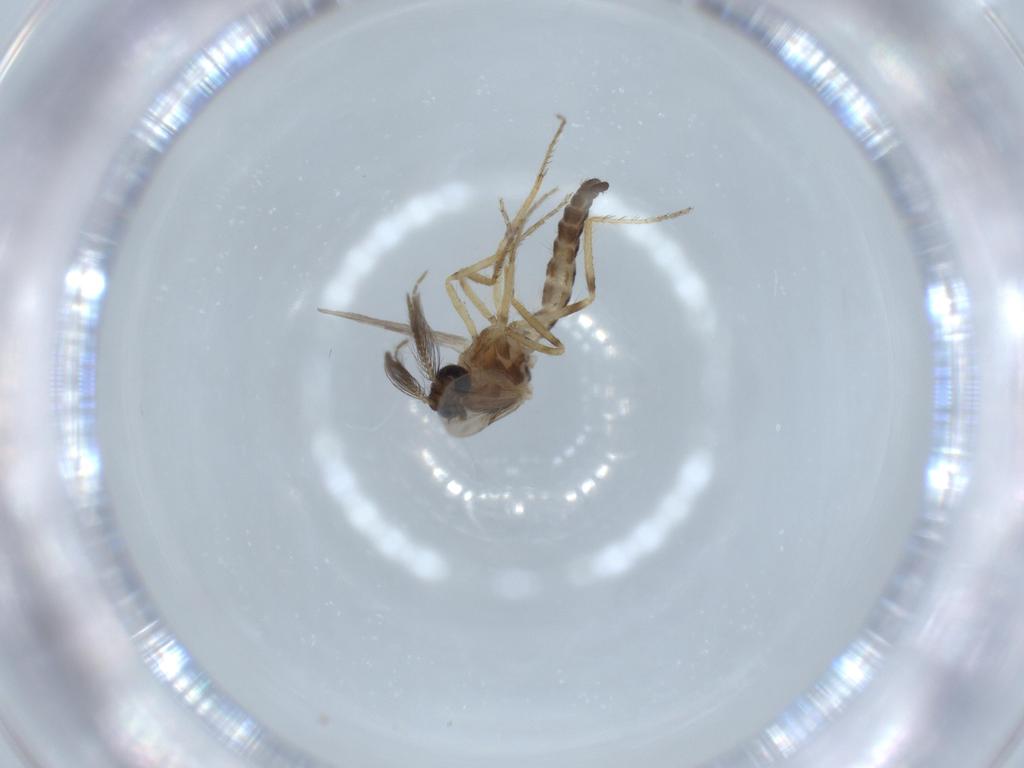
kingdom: Animalia
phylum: Arthropoda
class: Insecta
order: Diptera
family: Ceratopogonidae
